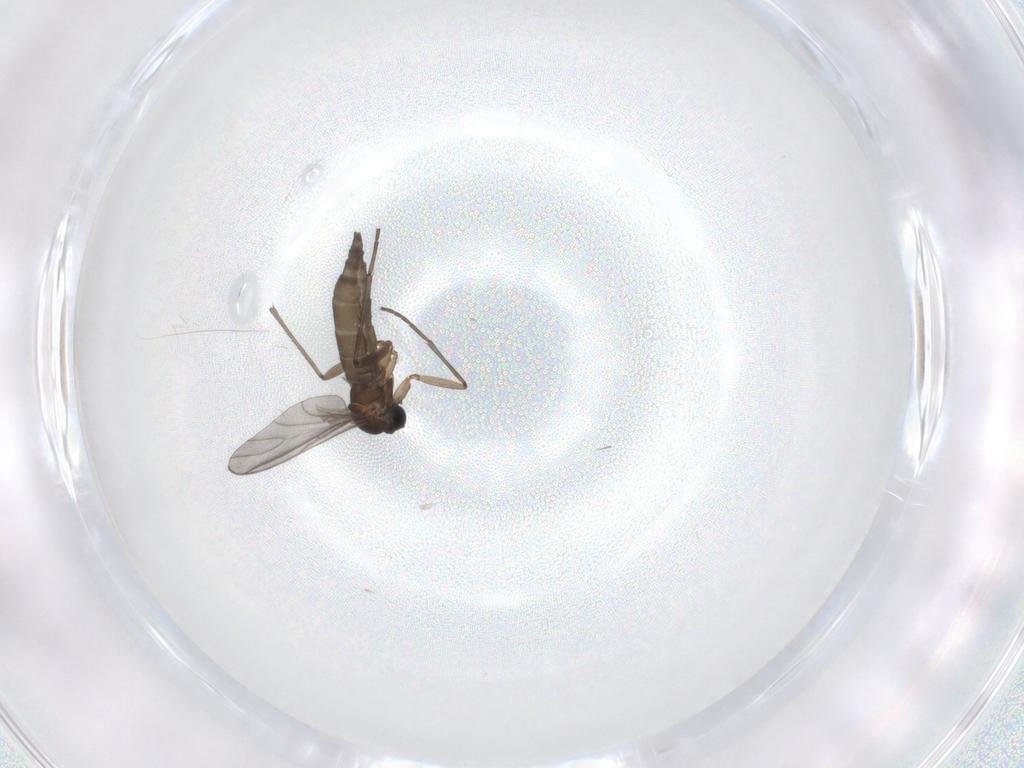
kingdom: Animalia
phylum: Arthropoda
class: Insecta
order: Diptera
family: Sciaridae
